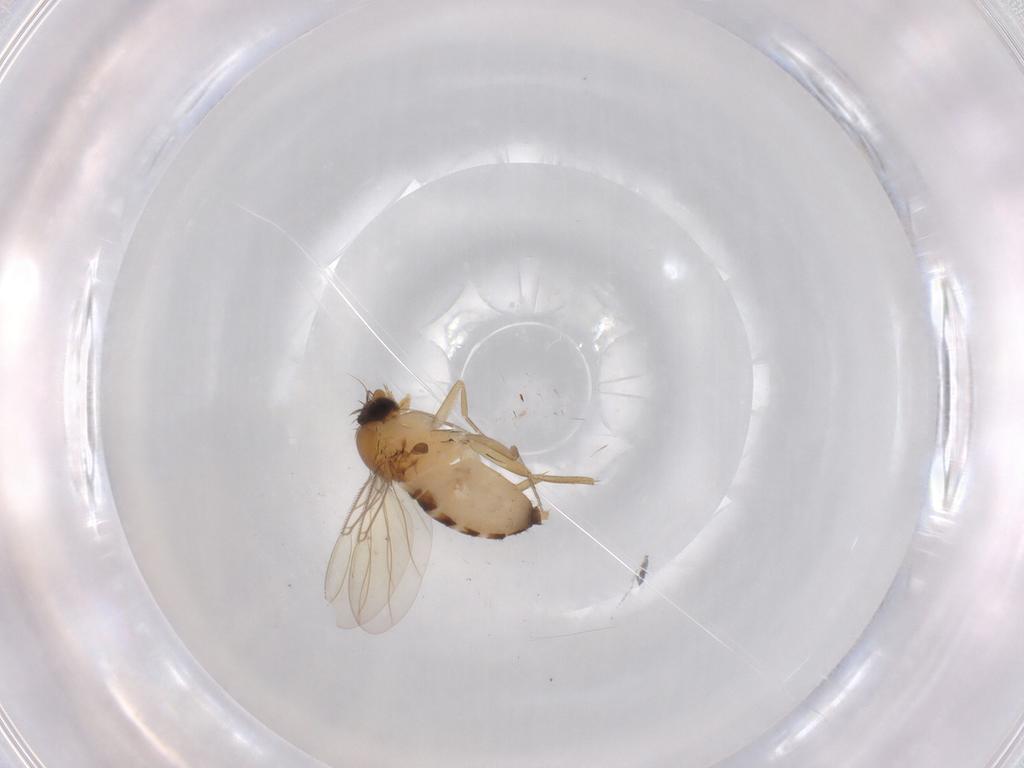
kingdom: Animalia
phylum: Arthropoda
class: Insecta
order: Diptera
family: Phoridae
